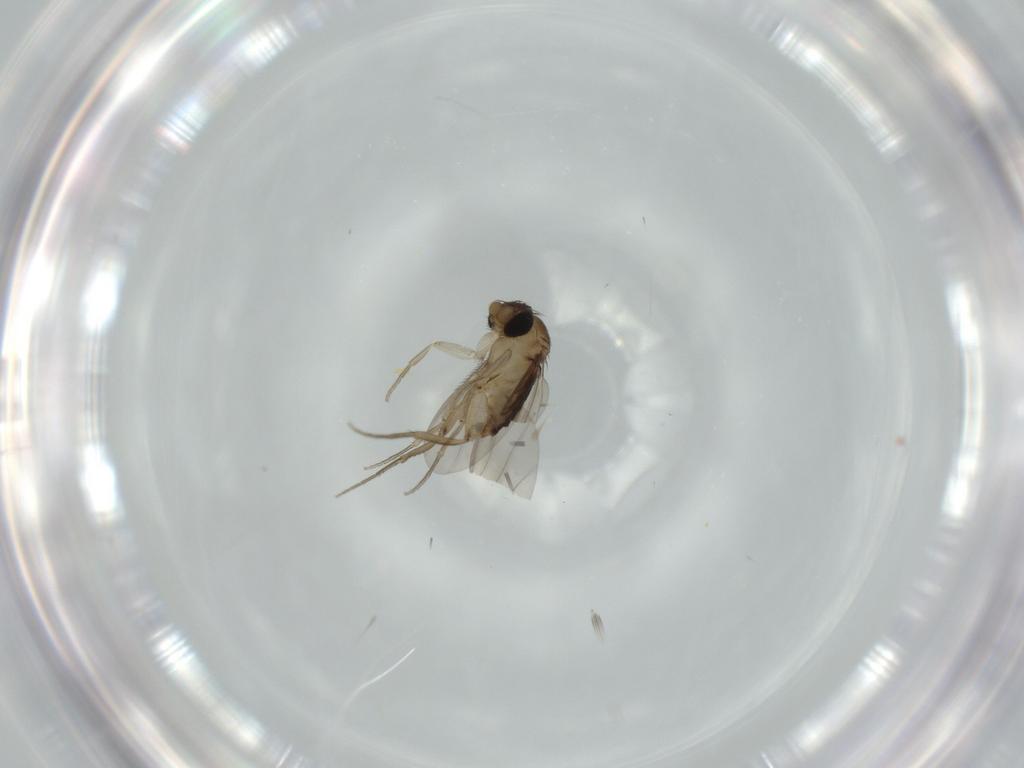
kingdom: Animalia
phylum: Arthropoda
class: Insecta
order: Diptera
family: Phoridae
